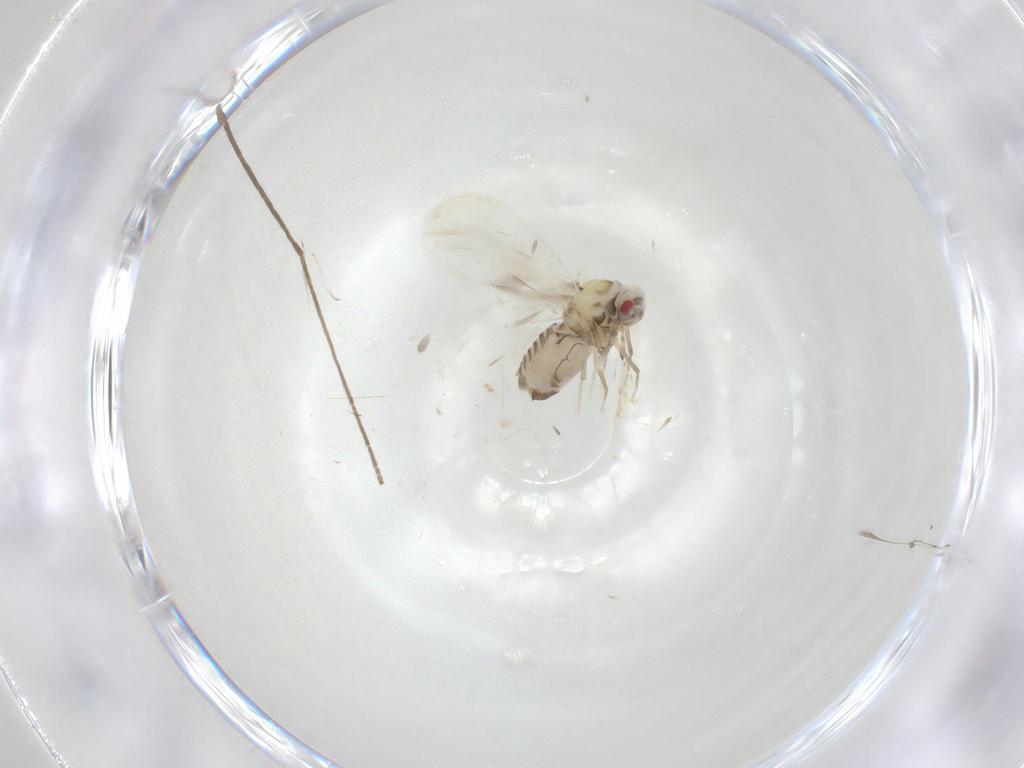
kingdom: Animalia
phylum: Arthropoda
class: Insecta
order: Hemiptera
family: Aleyrodidae
